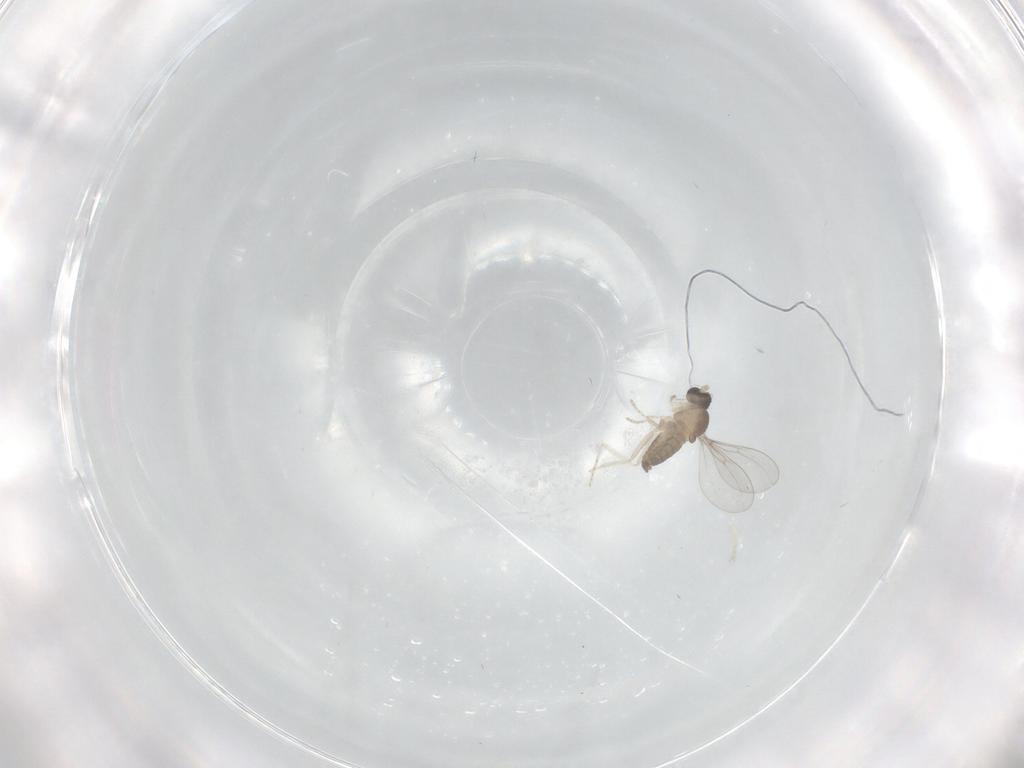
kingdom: Animalia
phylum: Arthropoda
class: Insecta
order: Diptera
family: Cecidomyiidae
